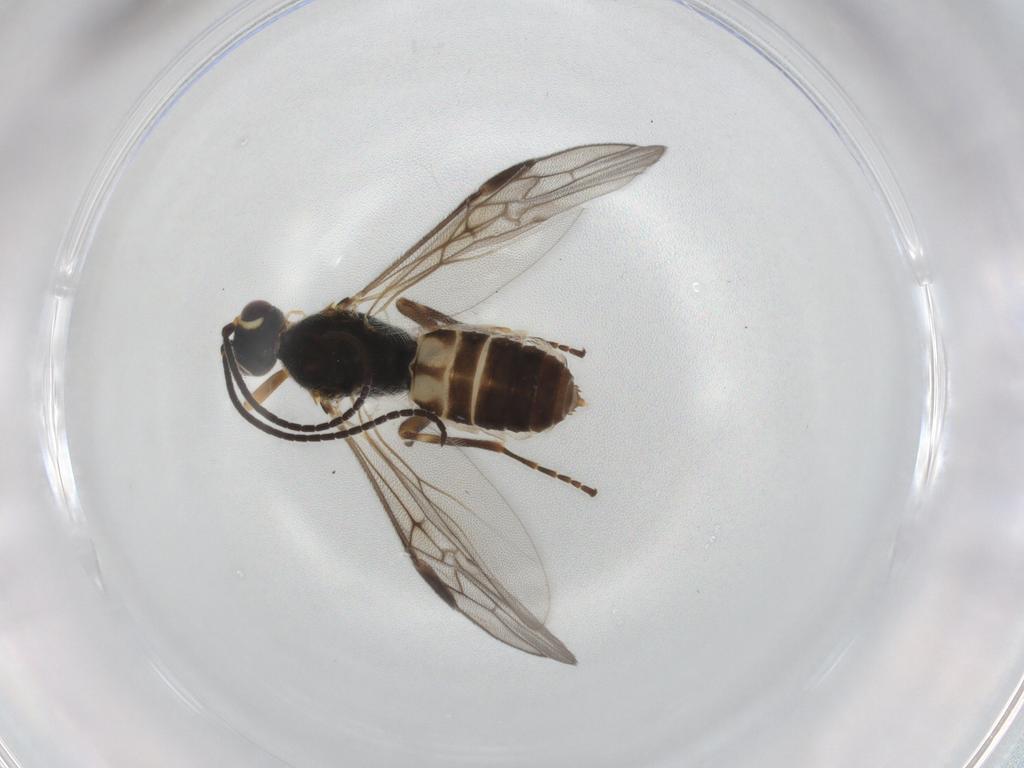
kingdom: Animalia
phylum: Arthropoda
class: Insecta
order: Hymenoptera
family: Braconidae
